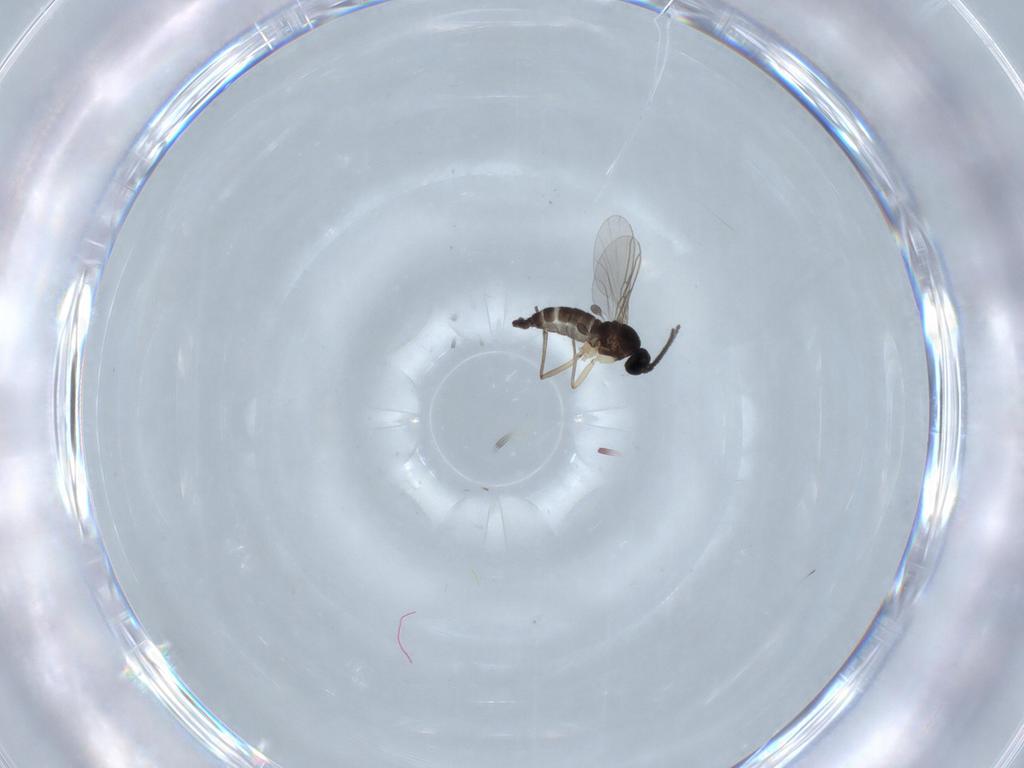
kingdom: Animalia
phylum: Arthropoda
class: Insecta
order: Diptera
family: Sciaridae
